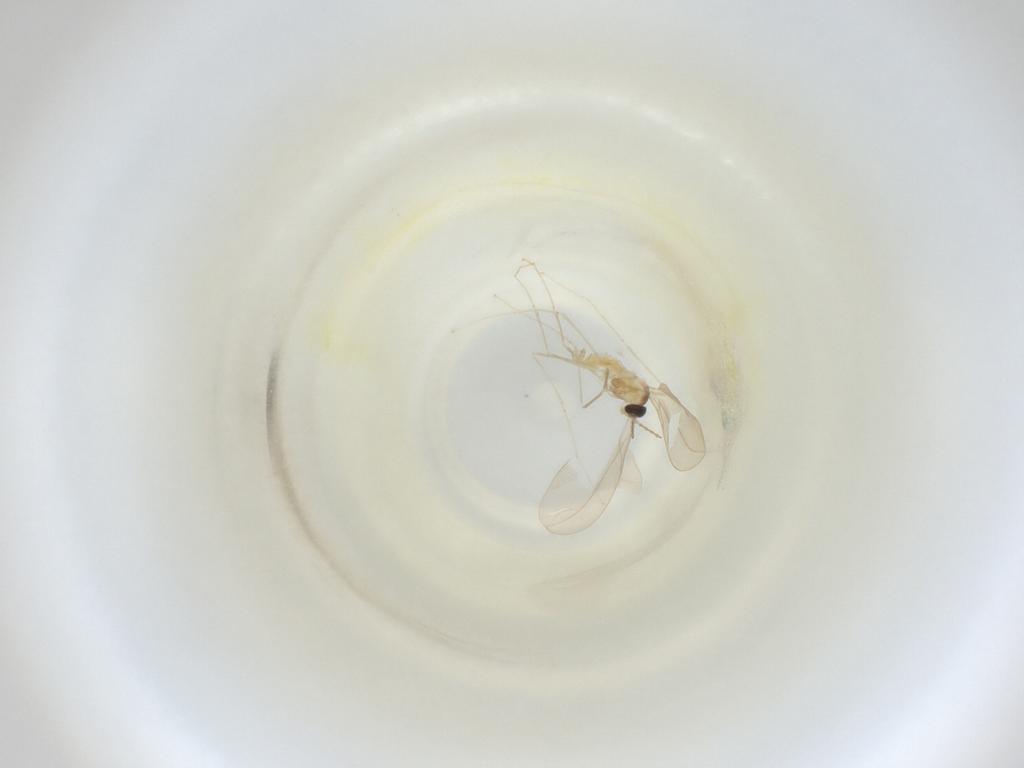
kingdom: Animalia
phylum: Arthropoda
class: Insecta
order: Diptera
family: Cecidomyiidae
